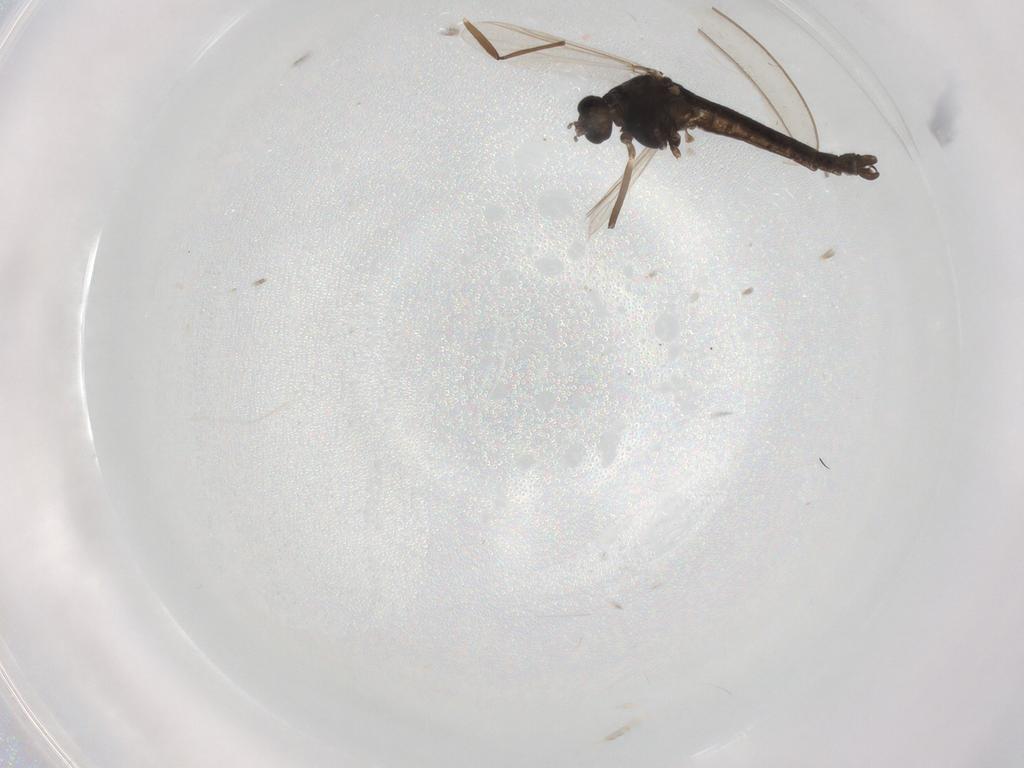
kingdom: Animalia
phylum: Arthropoda
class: Insecta
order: Diptera
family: Chironomidae
